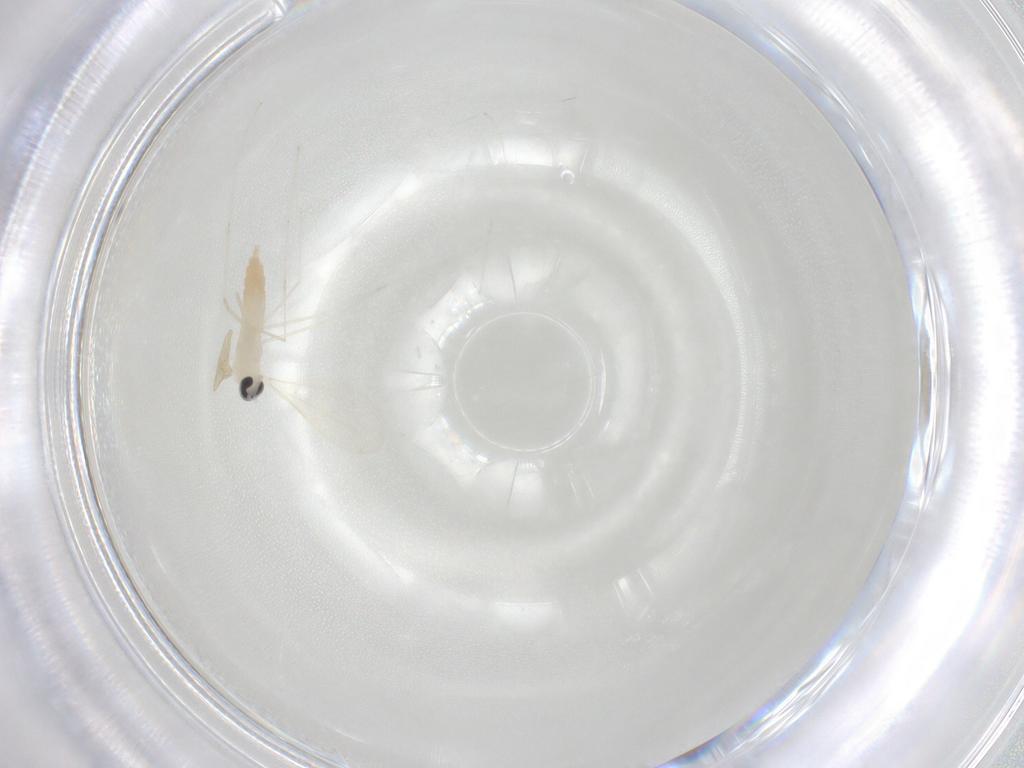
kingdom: Animalia
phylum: Arthropoda
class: Insecta
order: Diptera
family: Cecidomyiidae
